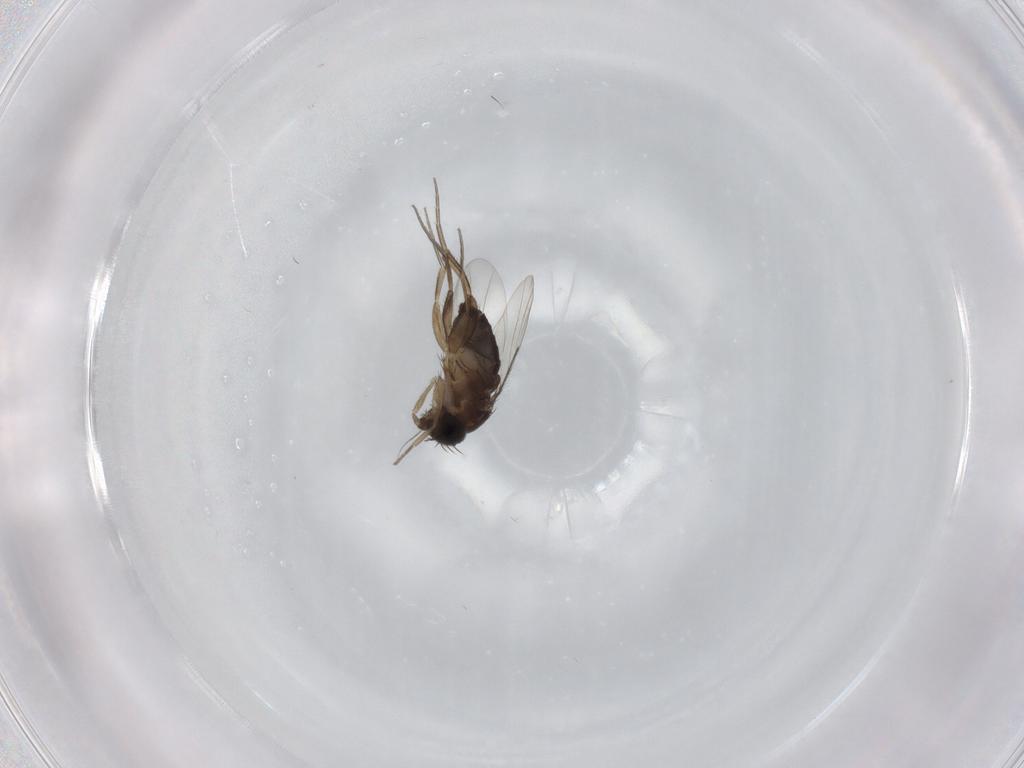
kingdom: Animalia
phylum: Arthropoda
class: Insecta
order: Diptera
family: Phoridae
